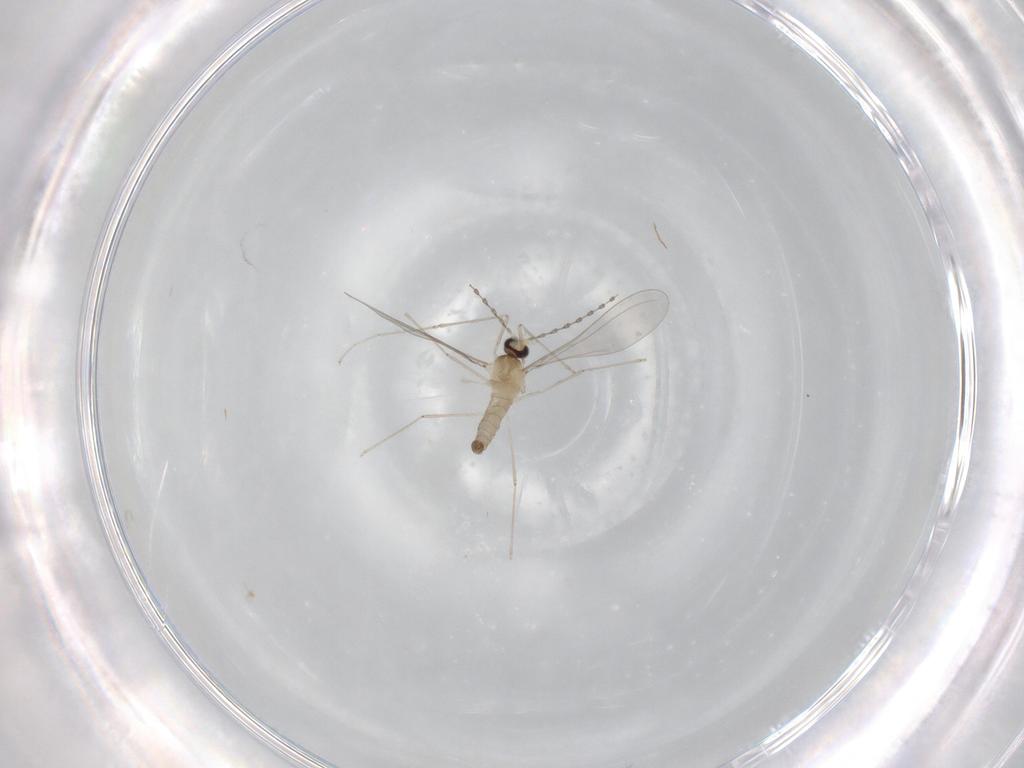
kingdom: Animalia
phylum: Arthropoda
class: Insecta
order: Diptera
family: Cecidomyiidae
